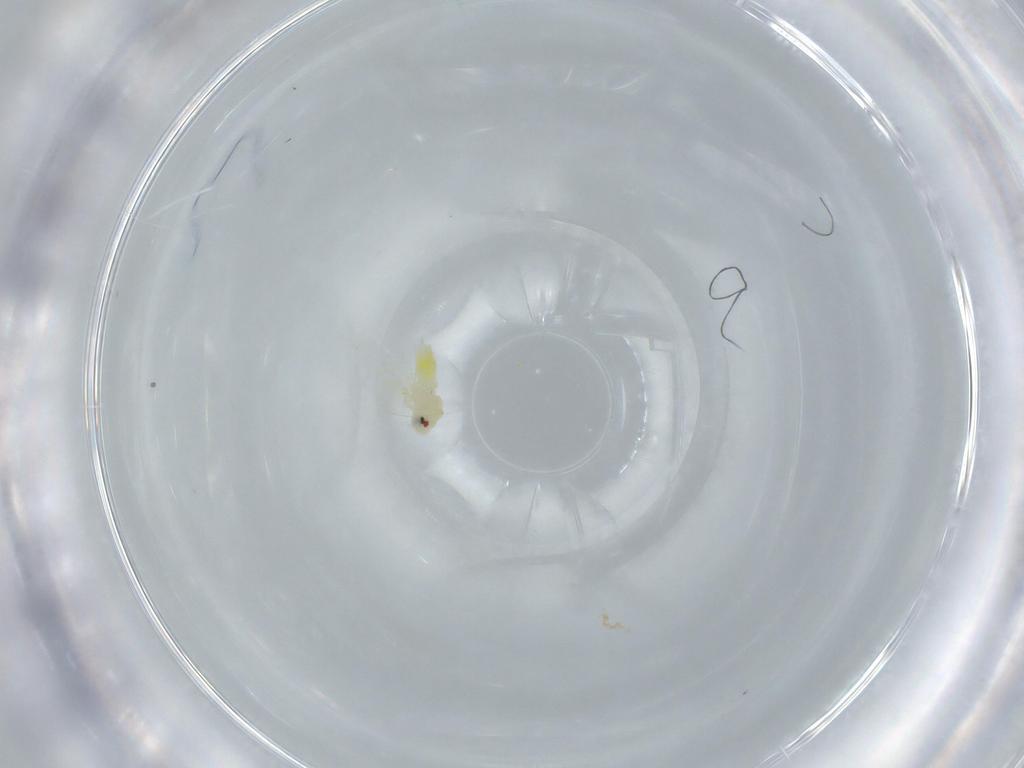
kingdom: Animalia
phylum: Arthropoda
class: Insecta
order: Hemiptera
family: Aleyrodidae
